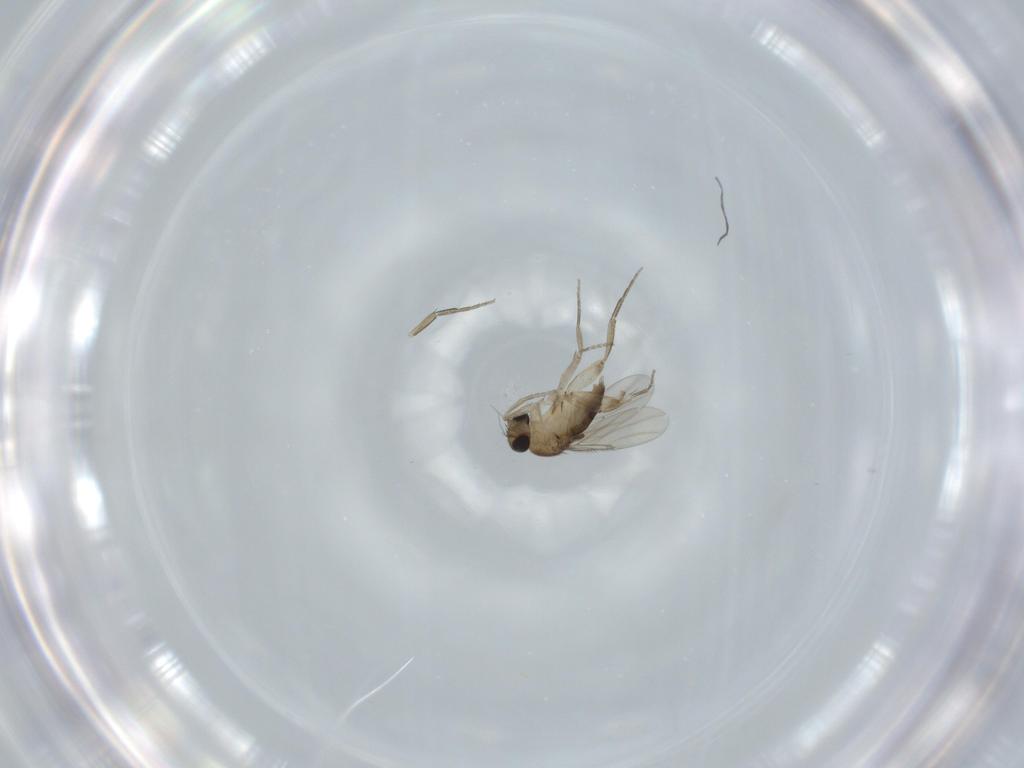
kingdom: Animalia
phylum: Arthropoda
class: Insecta
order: Diptera
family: Phoridae
